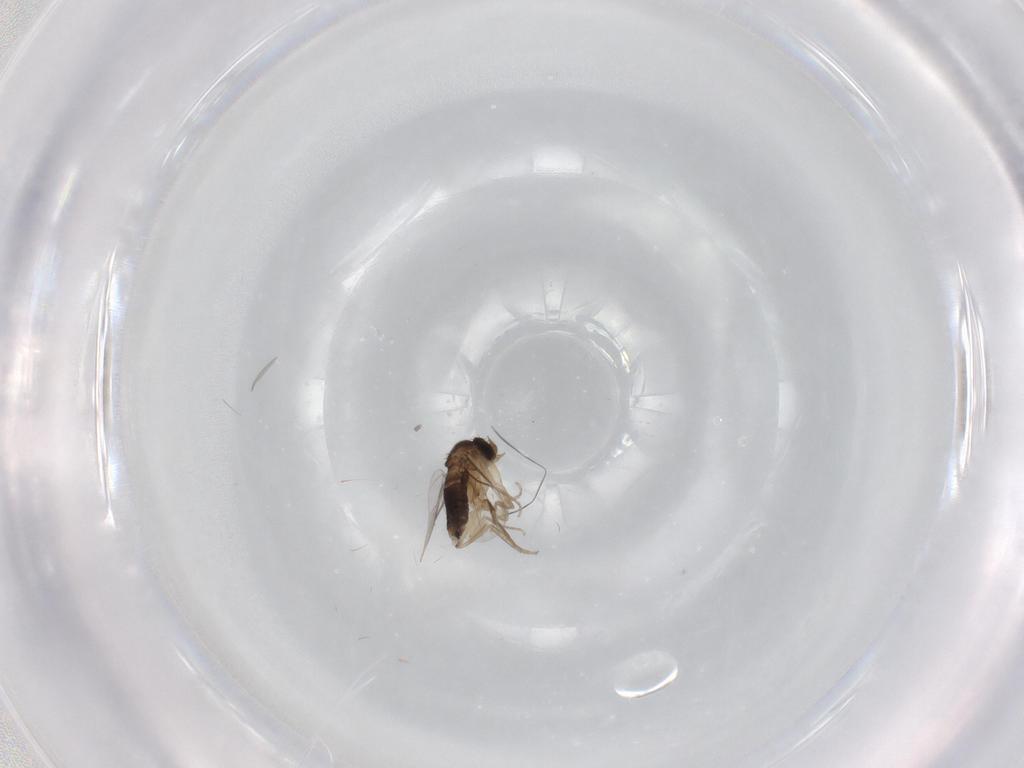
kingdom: Animalia
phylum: Arthropoda
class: Insecta
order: Diptera
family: Phoridae
